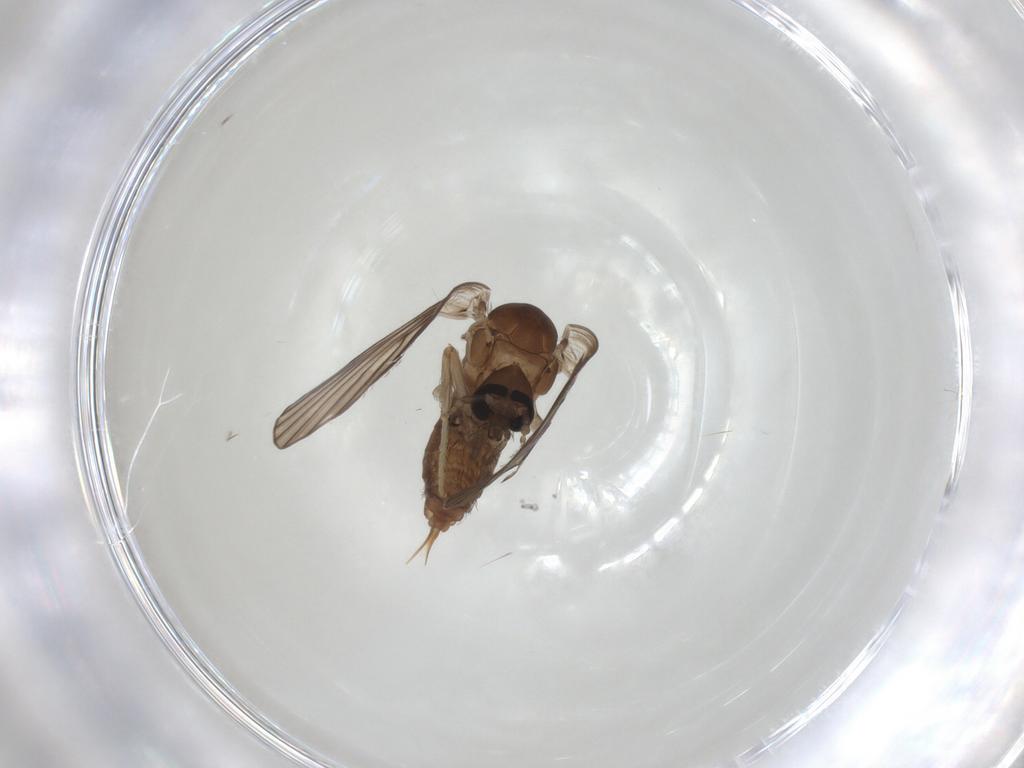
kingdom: Animalia
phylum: Arthropoda
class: Insecta
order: Diptera
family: Psychodidae
